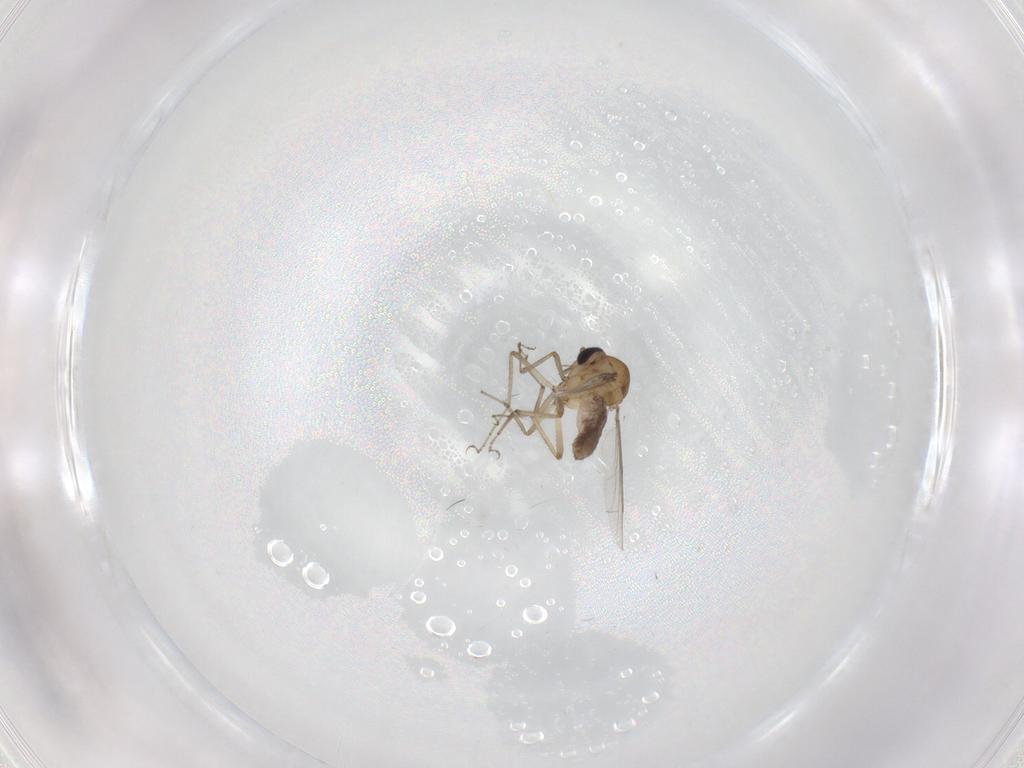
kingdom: Animalia
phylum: Arthropoda
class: Insecta
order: Diptera
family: Ceratopogonidae
